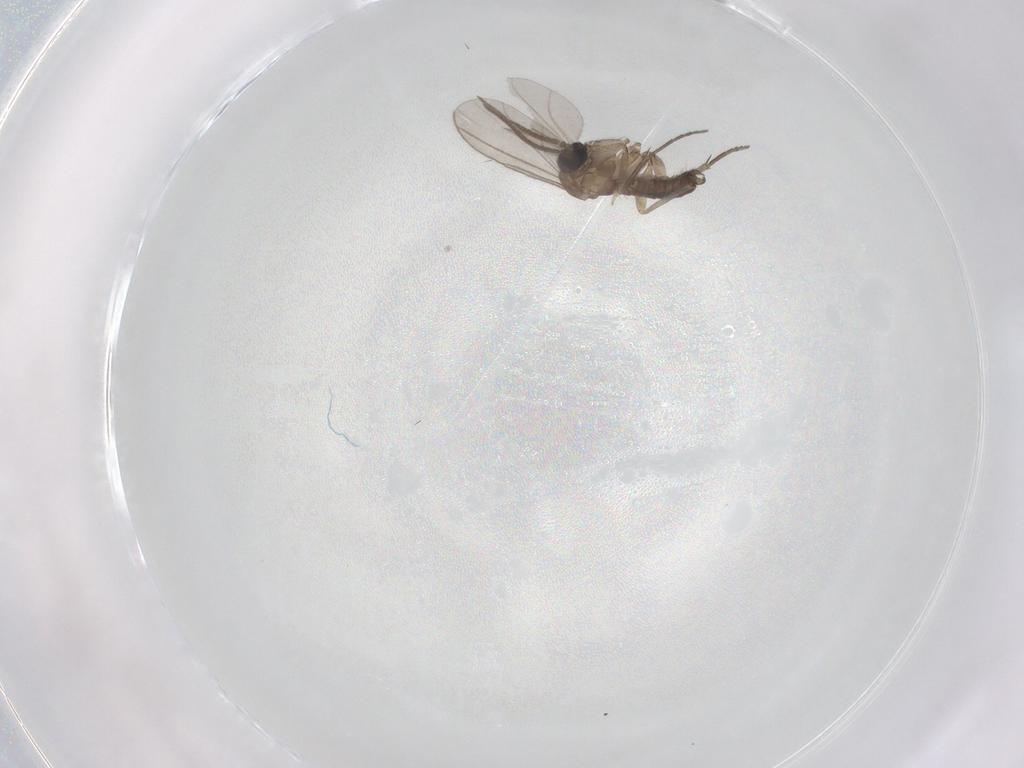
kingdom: Animalia
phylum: Arthropoda
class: Insecta
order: Diptera
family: Sciaridae
